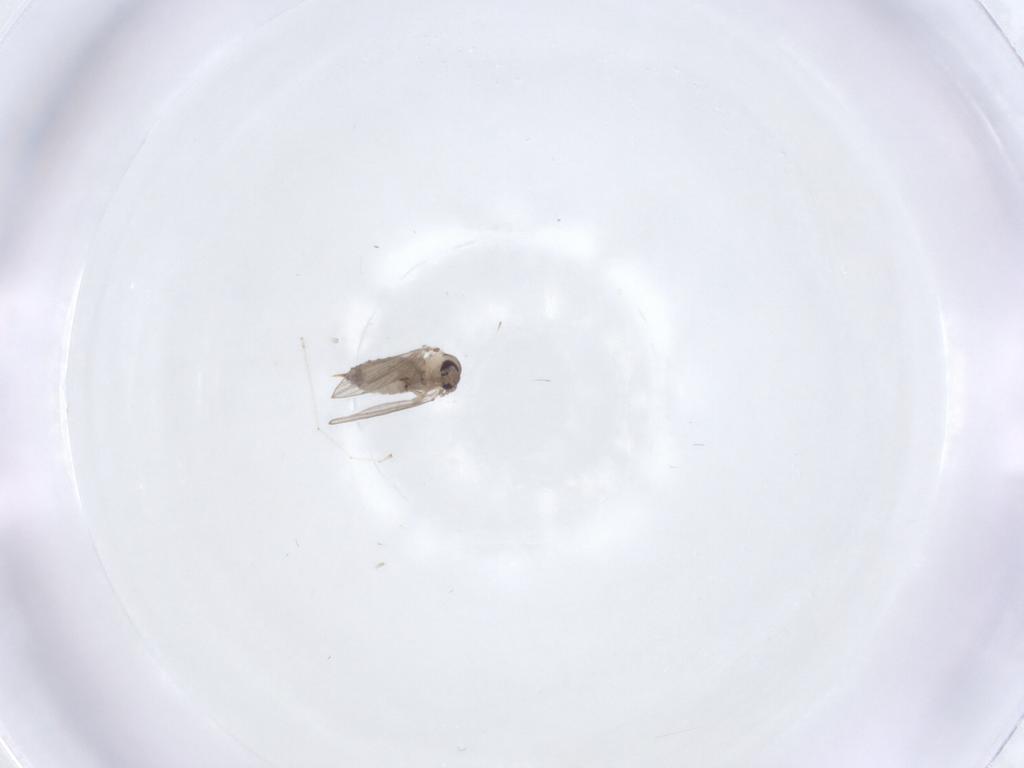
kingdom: Animalia
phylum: Arthropoda
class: Insecta
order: Diptera
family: Psychodidae
